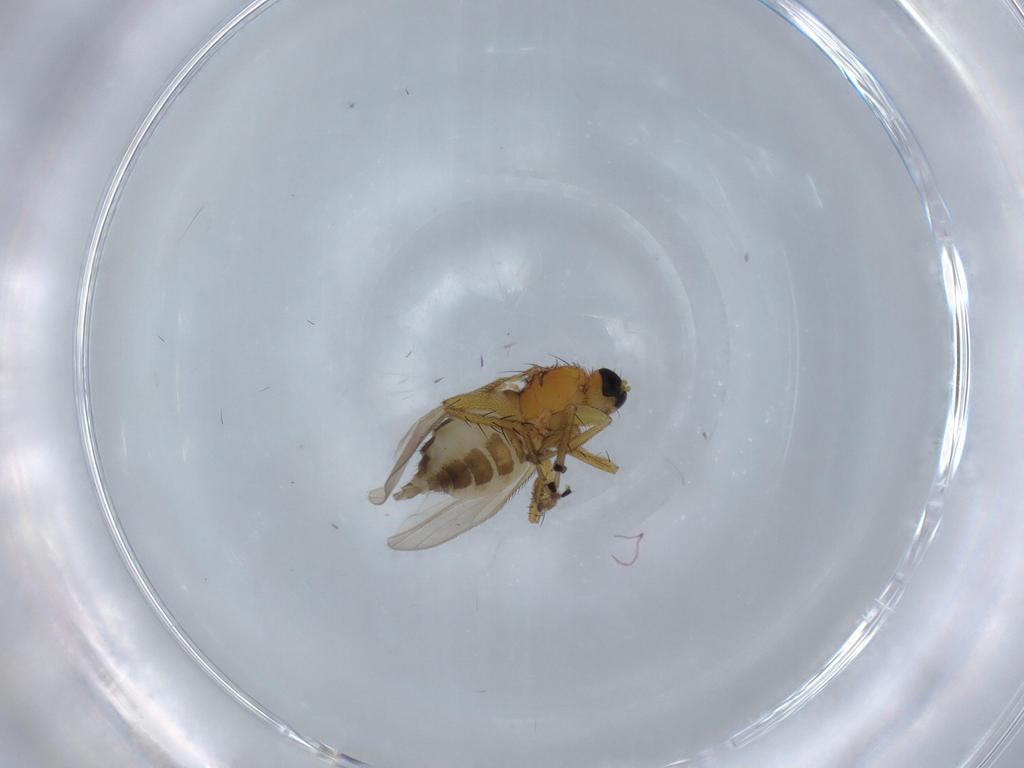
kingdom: Animalia
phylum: Arthropoda
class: Insecta
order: Diptera
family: Hybotidae
